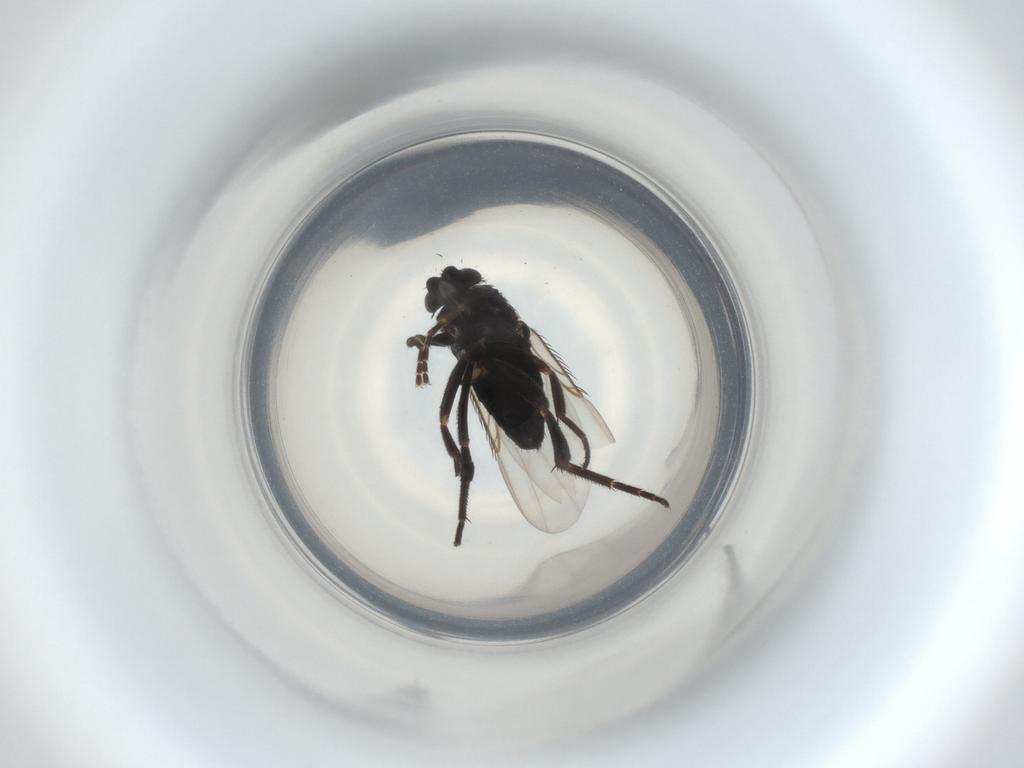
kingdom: Animalia
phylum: Arthropoda
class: Insecta
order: Diptera
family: Phoridae
